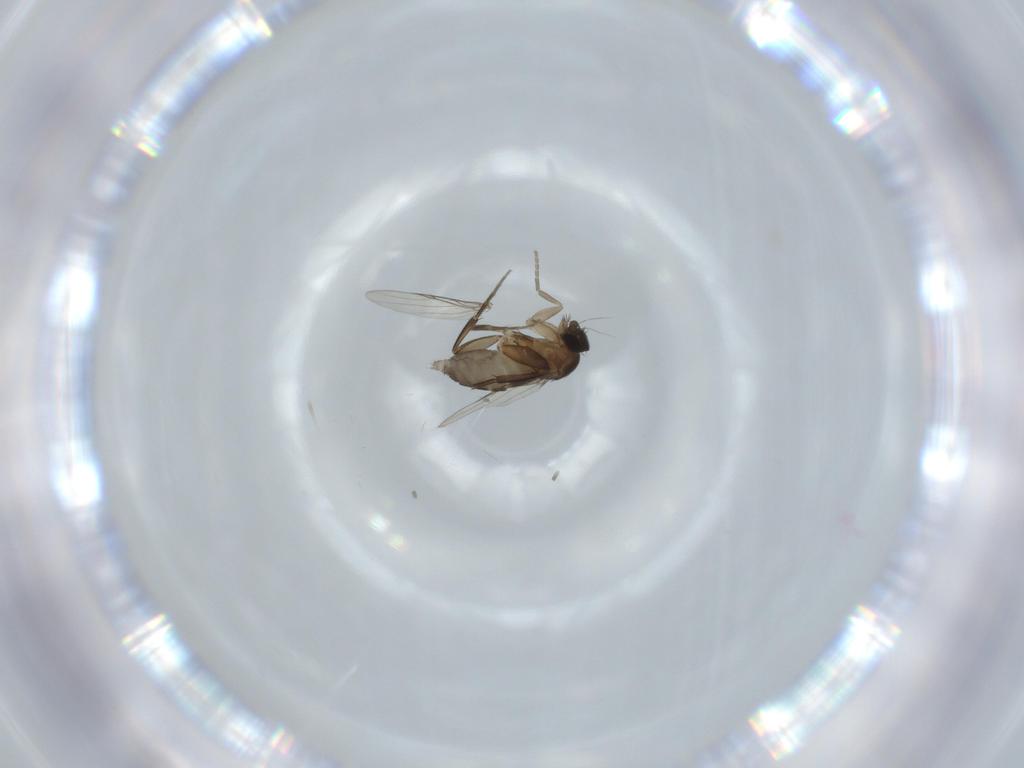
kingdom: Animalia
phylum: Arthropoda
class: Insecta
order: Diptera
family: Phoridae
